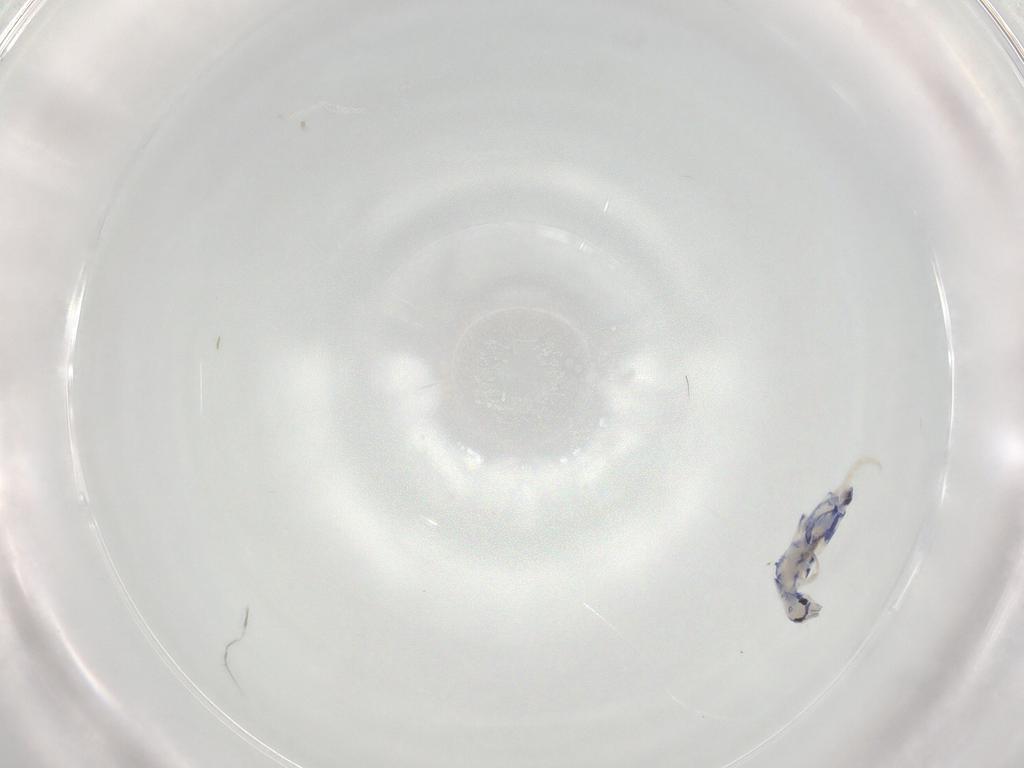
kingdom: Animalia
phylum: Arthropoda
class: Collembola
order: Entomobryomorpha
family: Entomobryidae
